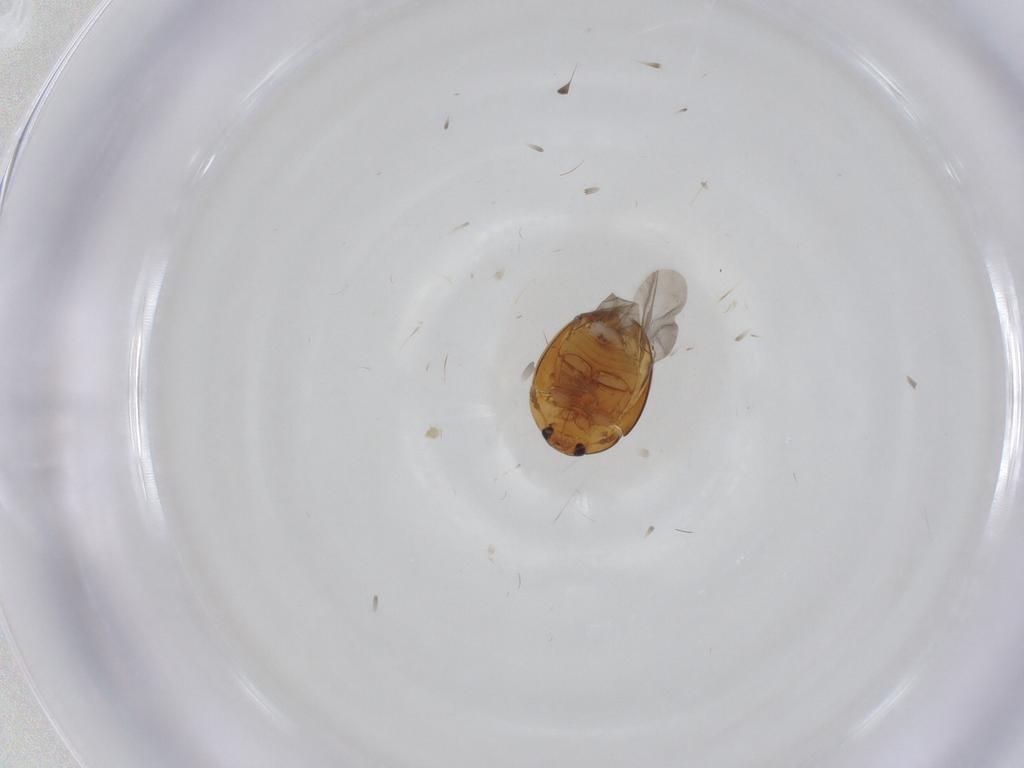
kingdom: Animalia
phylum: Arthropoda
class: Insecta
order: Coleoptera
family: Phalacridae
